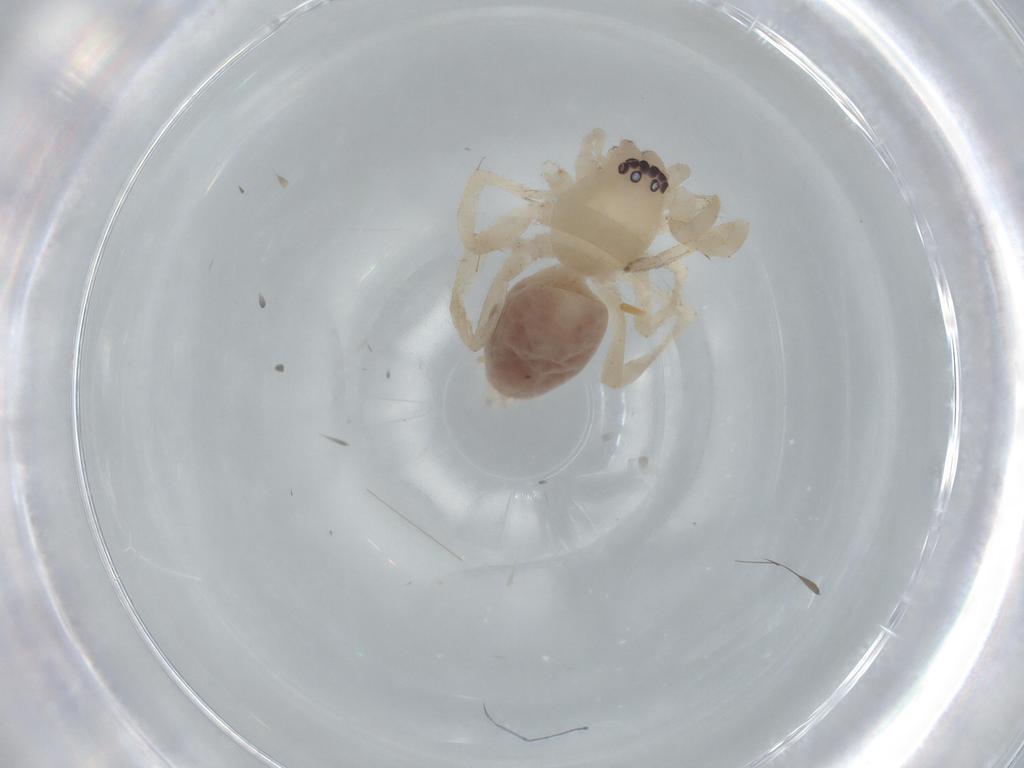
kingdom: Animalia
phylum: Arthropoda
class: Arachnida
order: Araneae
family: Linyphiidae
